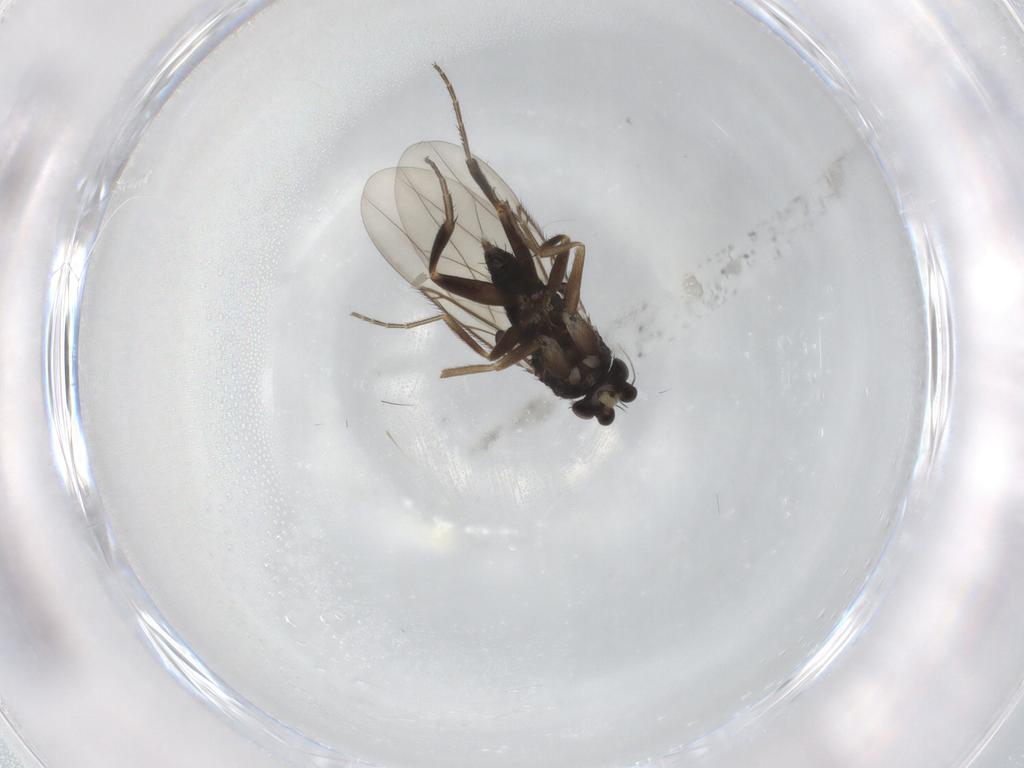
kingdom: Animalia
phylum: Arthropoda
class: Insecta
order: Diptera
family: Phoridae
